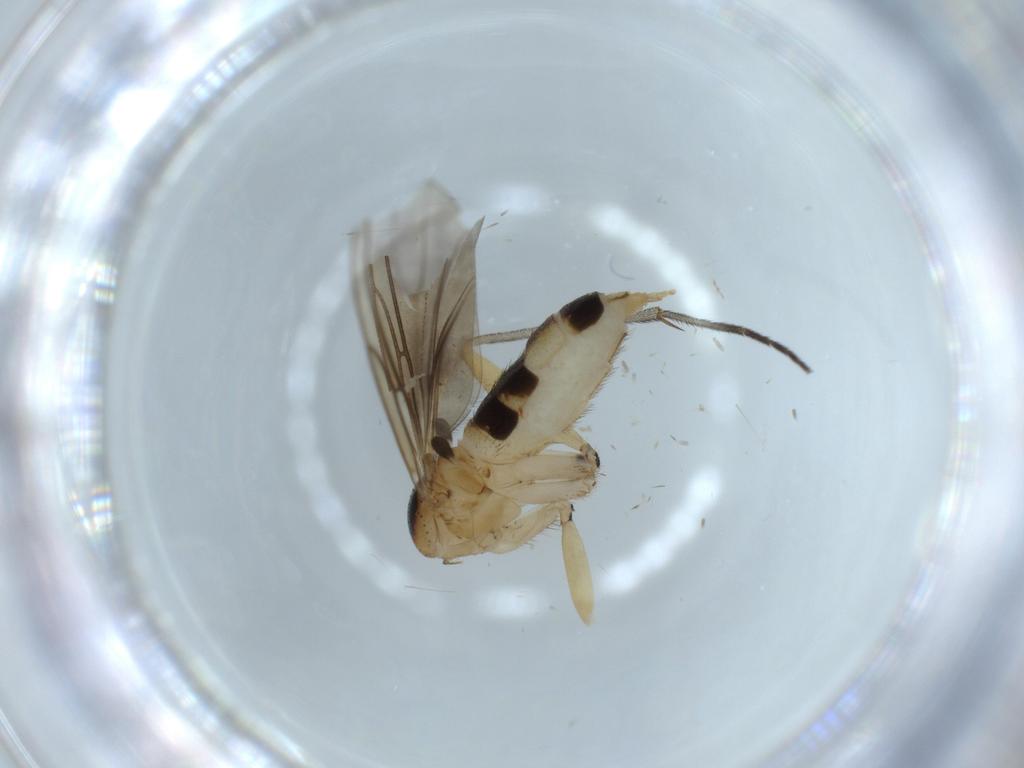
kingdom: Animalia
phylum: Arthropoda
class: Insecta
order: Diptera
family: Sciaridae
